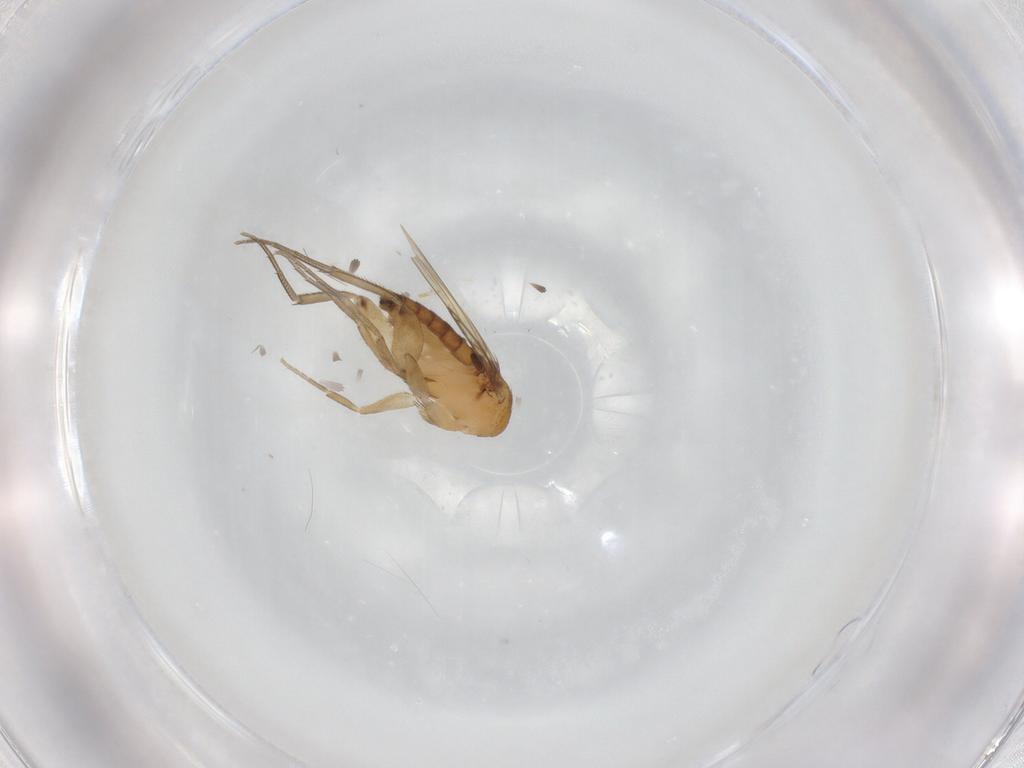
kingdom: Animalia
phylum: Arthropoda
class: Insecta
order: Diptera
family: Phoridae
